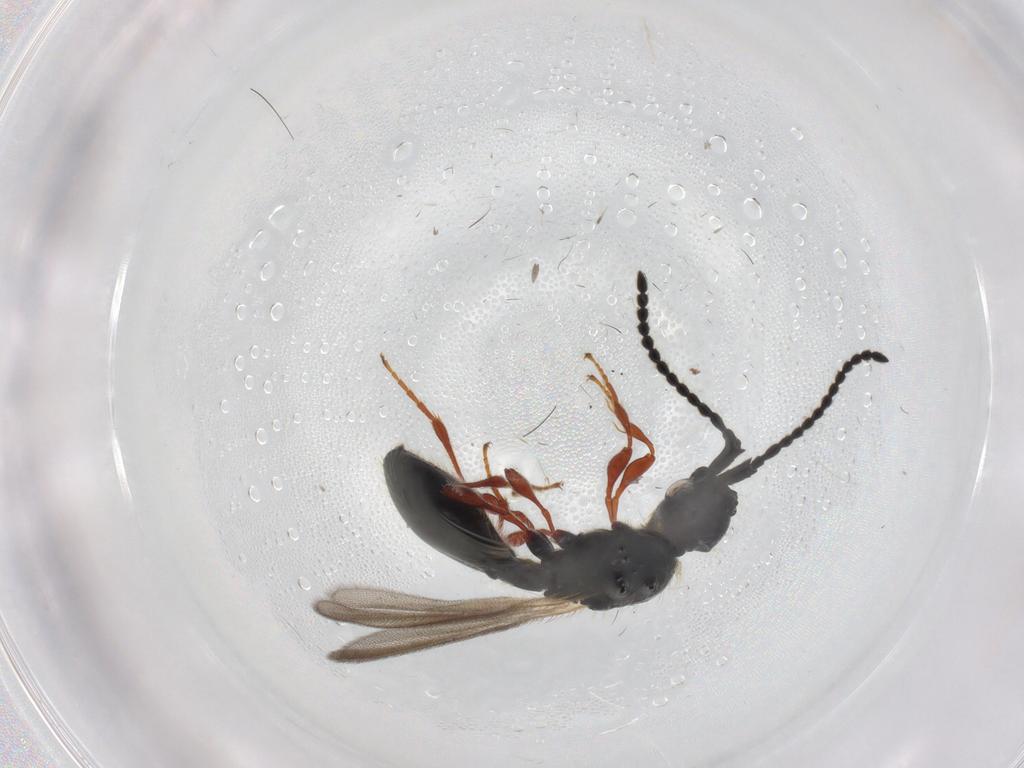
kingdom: Animalia
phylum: Arthropoda
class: Insecta
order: Hymenoptera
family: Diapriidae
